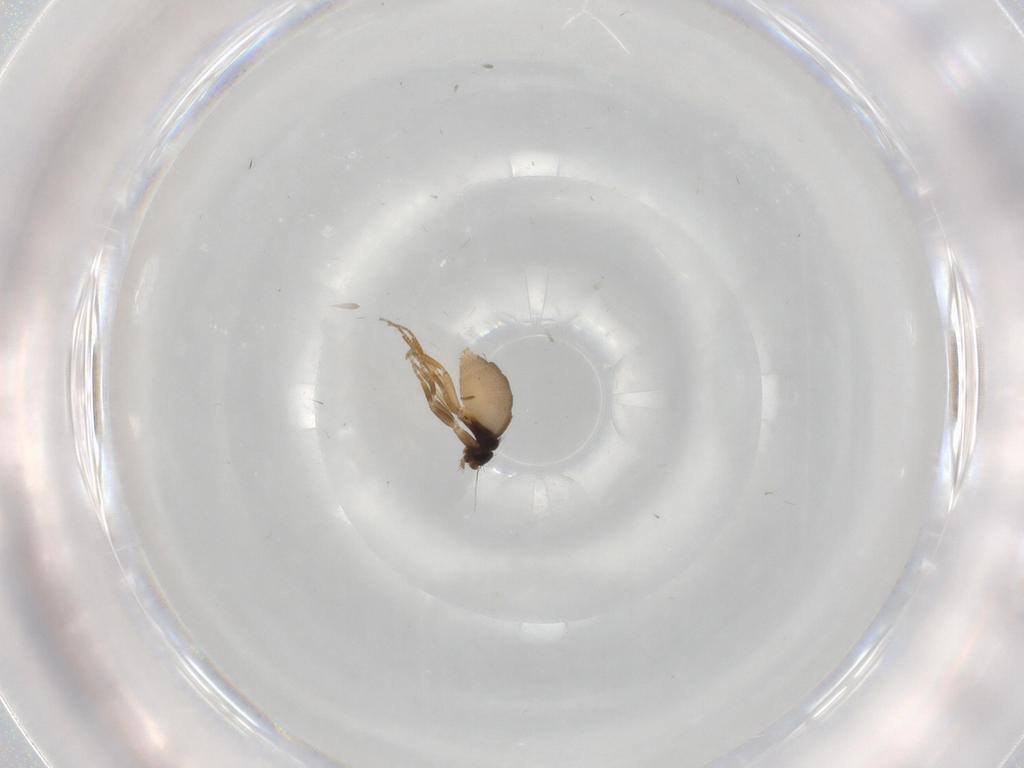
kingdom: Animalia
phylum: Arthropoda
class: Insecta
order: Diptera
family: Phoridae
